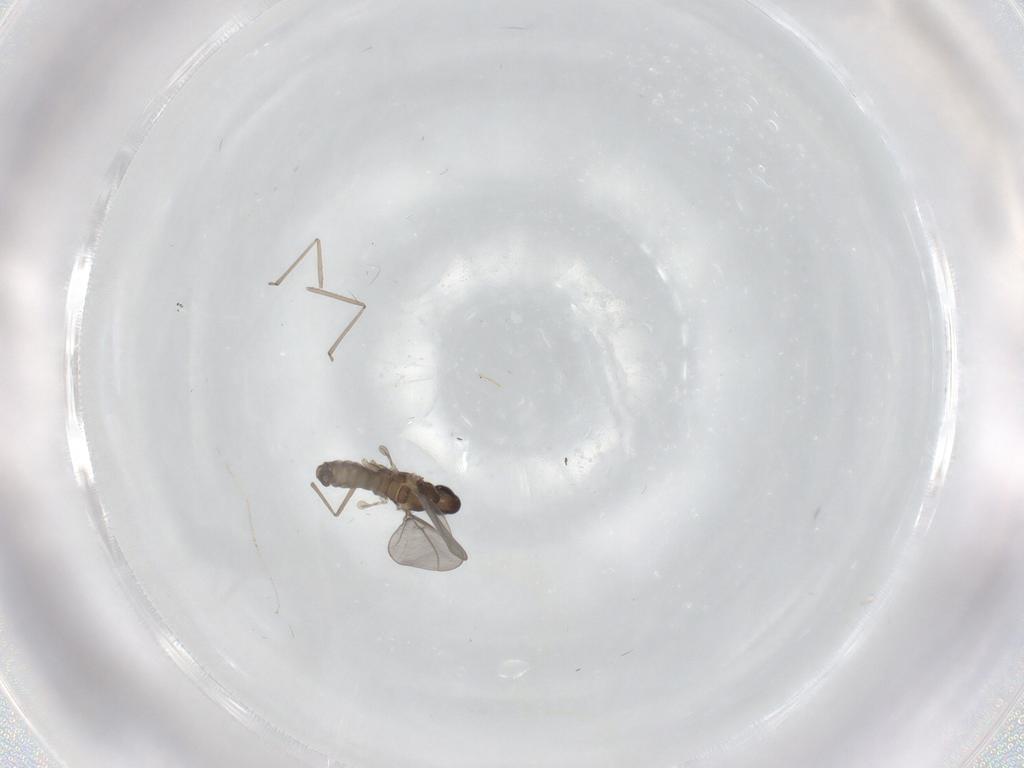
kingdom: Animalia
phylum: Arthropoda
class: Insecta
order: Diptera
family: Cecidomyiidae
